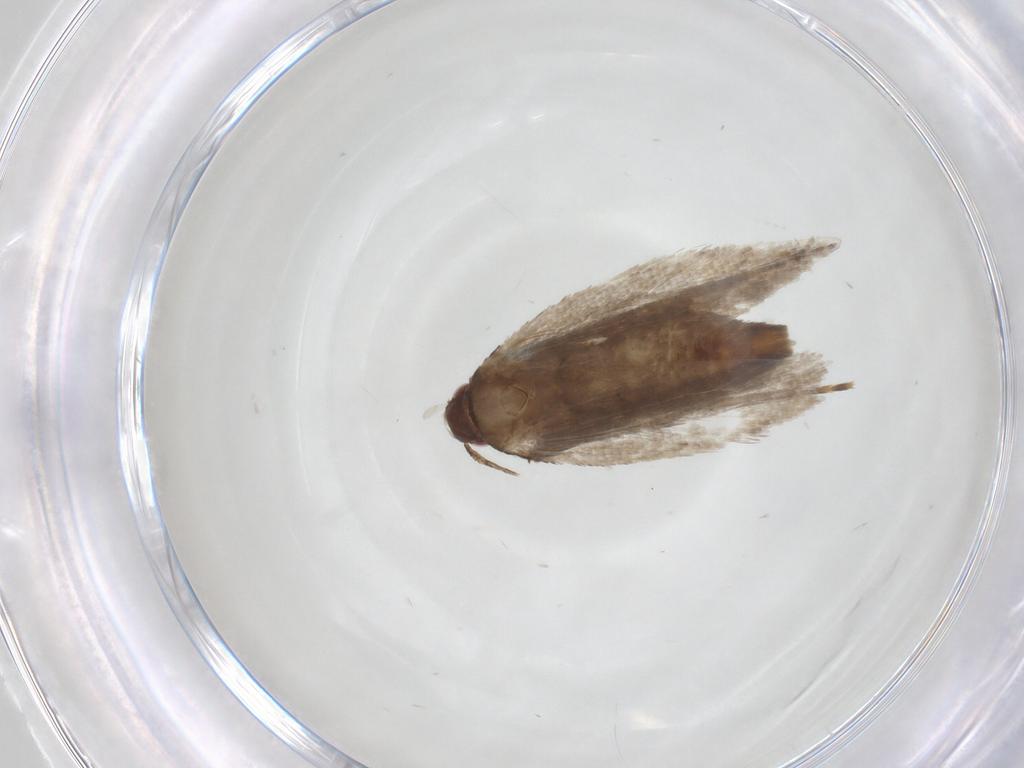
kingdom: Animalia
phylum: Arthropoda
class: Insecta
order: Lepidoptera
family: Gelechiidae
